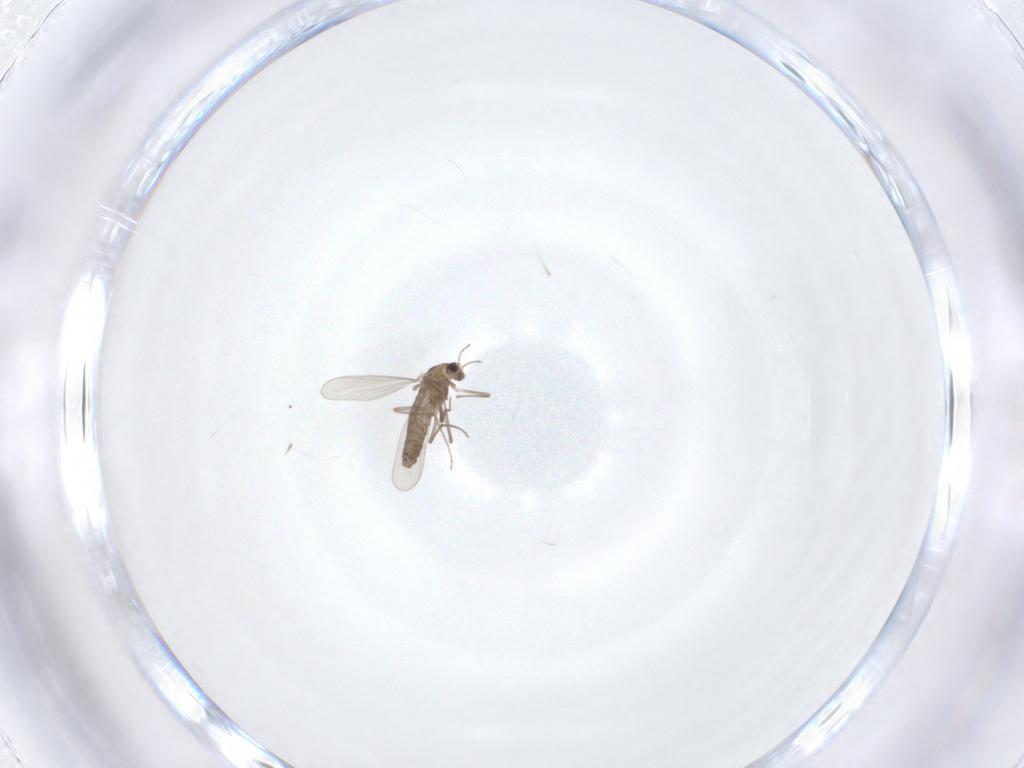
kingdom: Animalia
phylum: Arthropoda
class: Insecta
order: Diptera
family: Chironomidae
